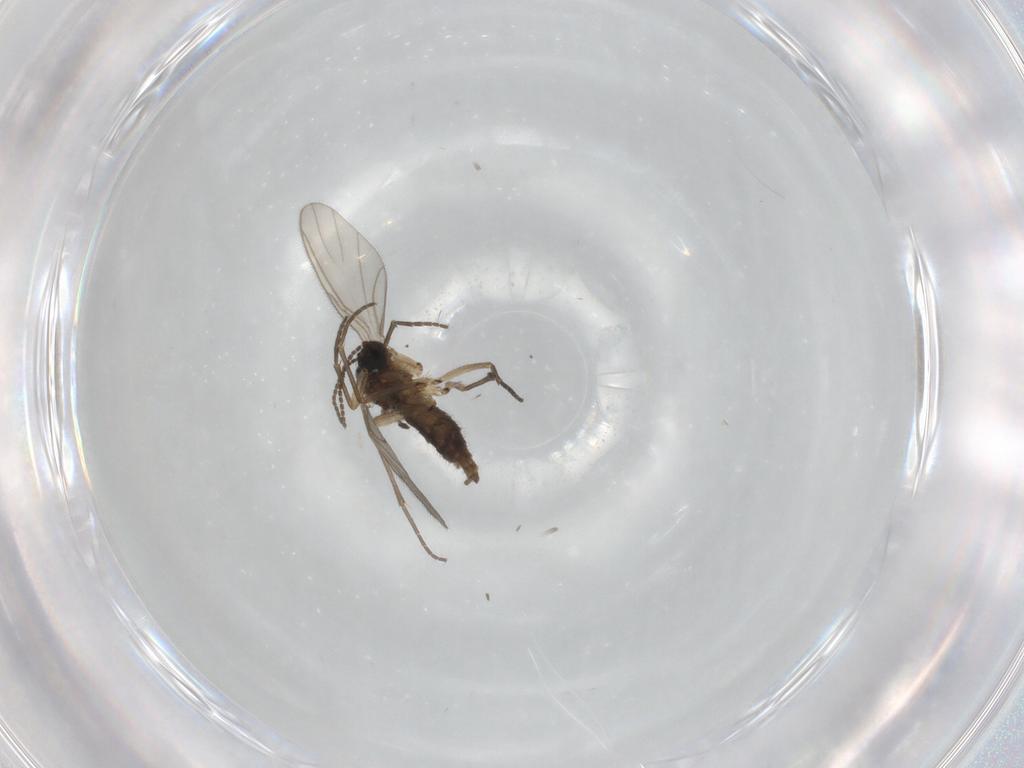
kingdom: Animalia
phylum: Arthropoda
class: Insecta
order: Diptera
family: Sciaridae
